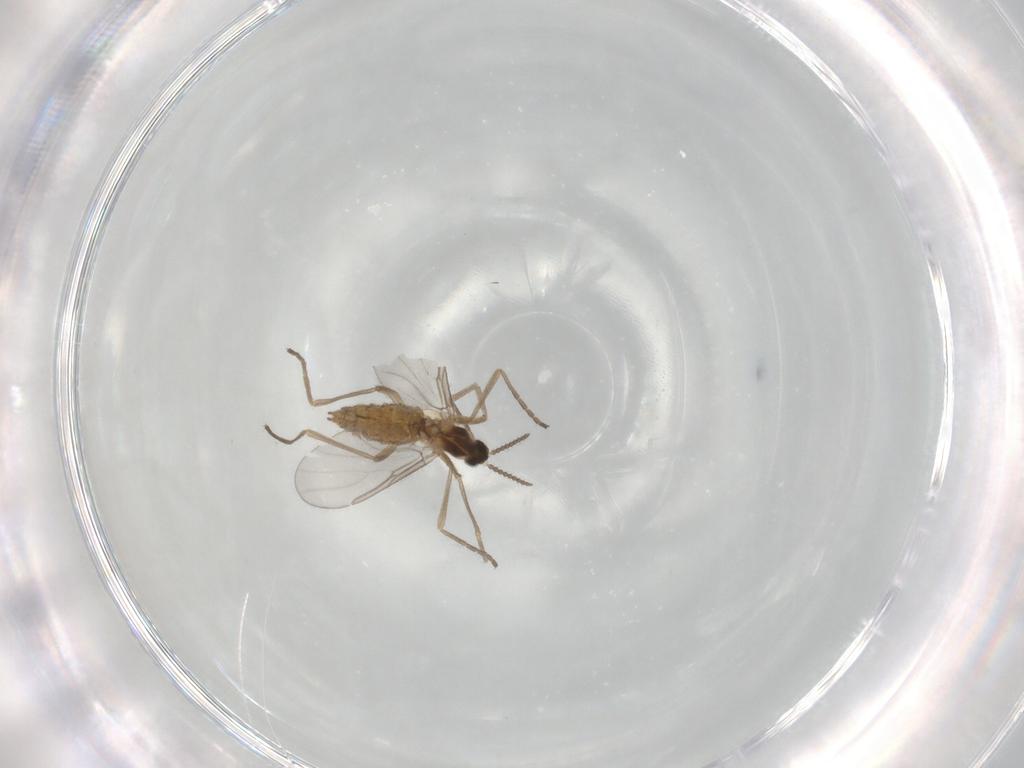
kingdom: Animalia
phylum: Arthropoda
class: Insecta
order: Diptera
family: Cecidomyiidae
